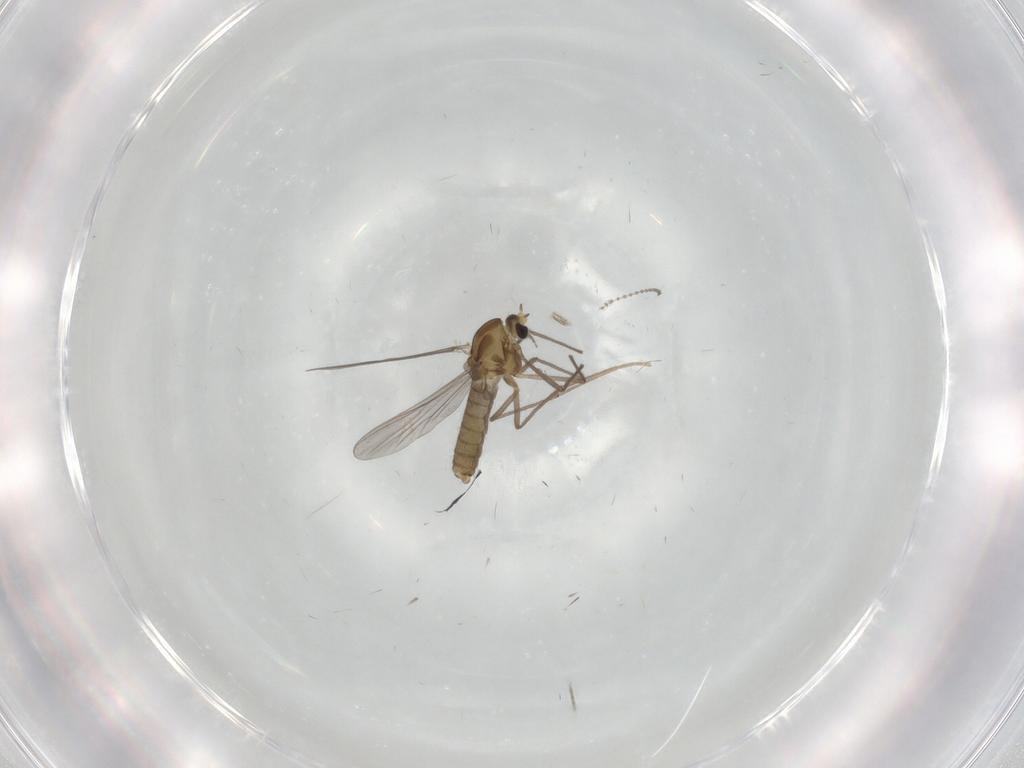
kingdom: Animalia
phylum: Arthropoda
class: Insecta
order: Diptera
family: Cecidomyiidae
